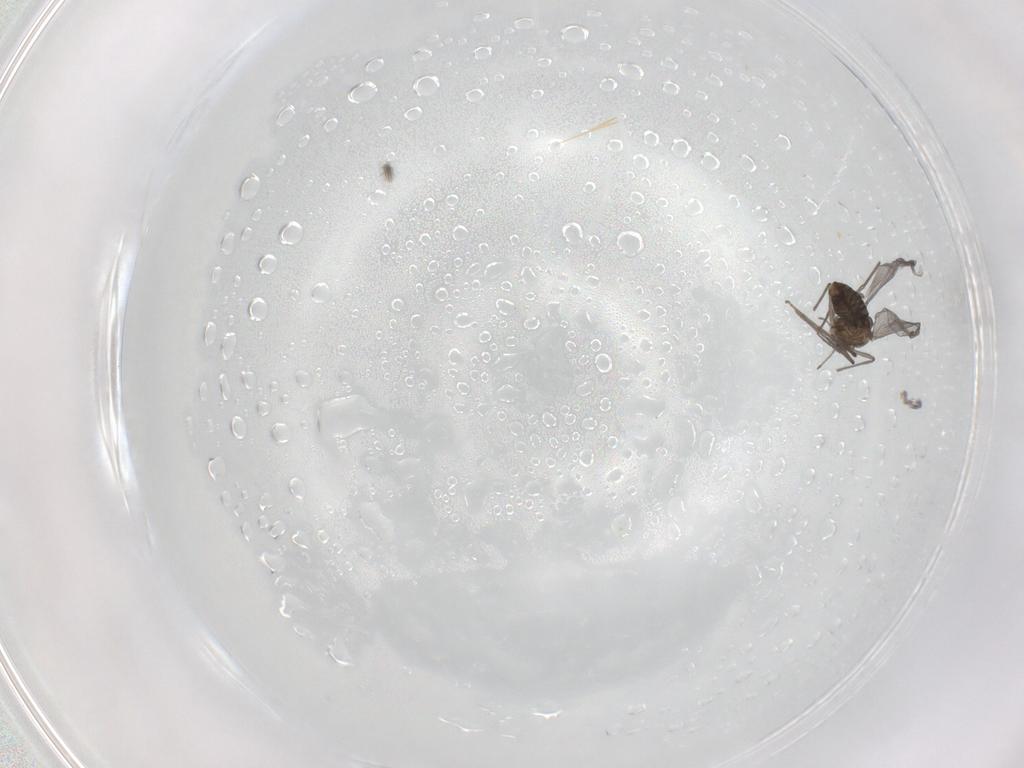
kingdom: Animalia
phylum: Arthropoda
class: Insecta
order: Diptera
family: Chironomidae
